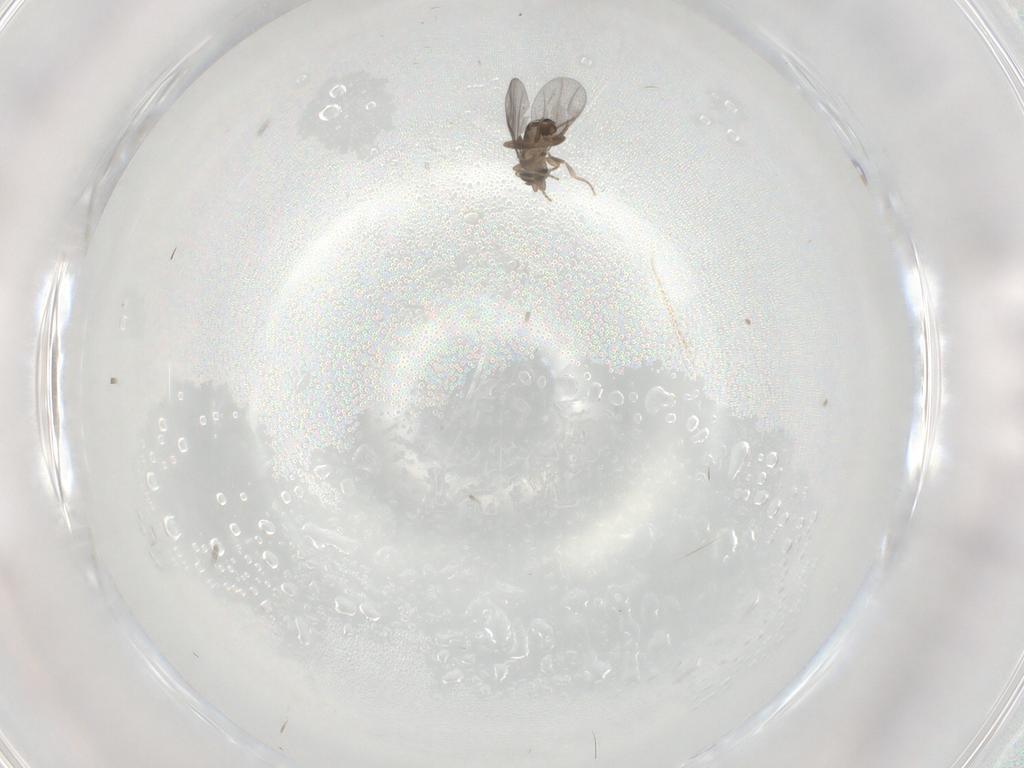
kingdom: Animalia
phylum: Arthropoda
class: Insecta
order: Diptera
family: Phoridae
